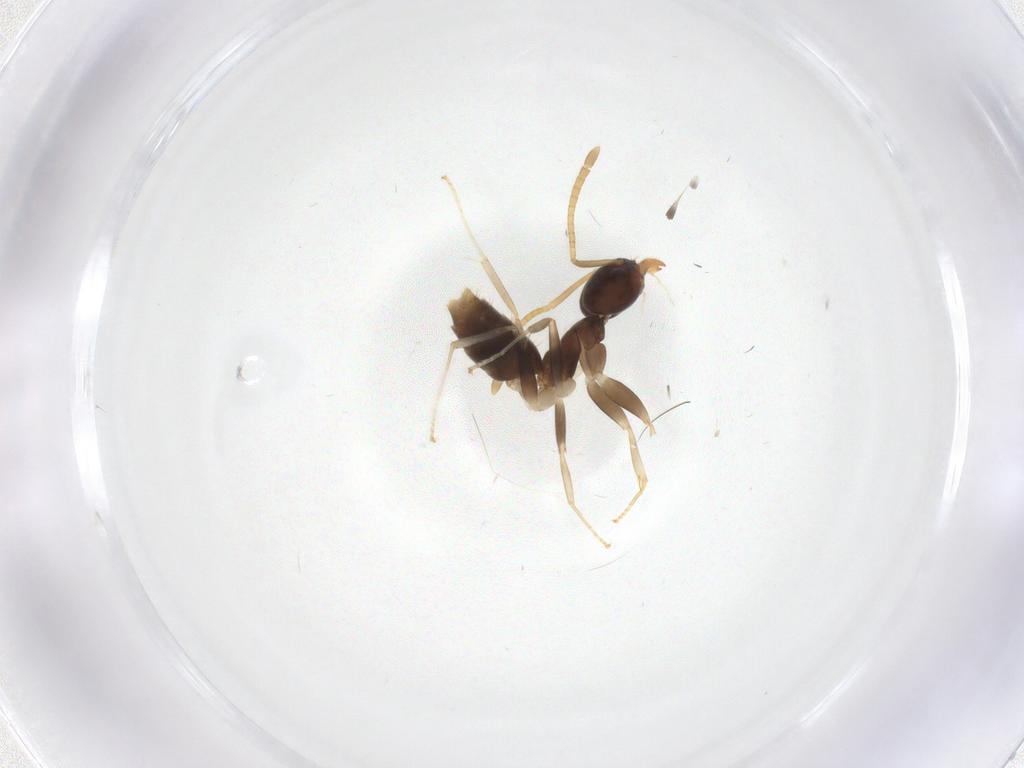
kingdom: Animalia
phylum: Arthropoda
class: Insecta
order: Hymenoptera
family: Formicidae
